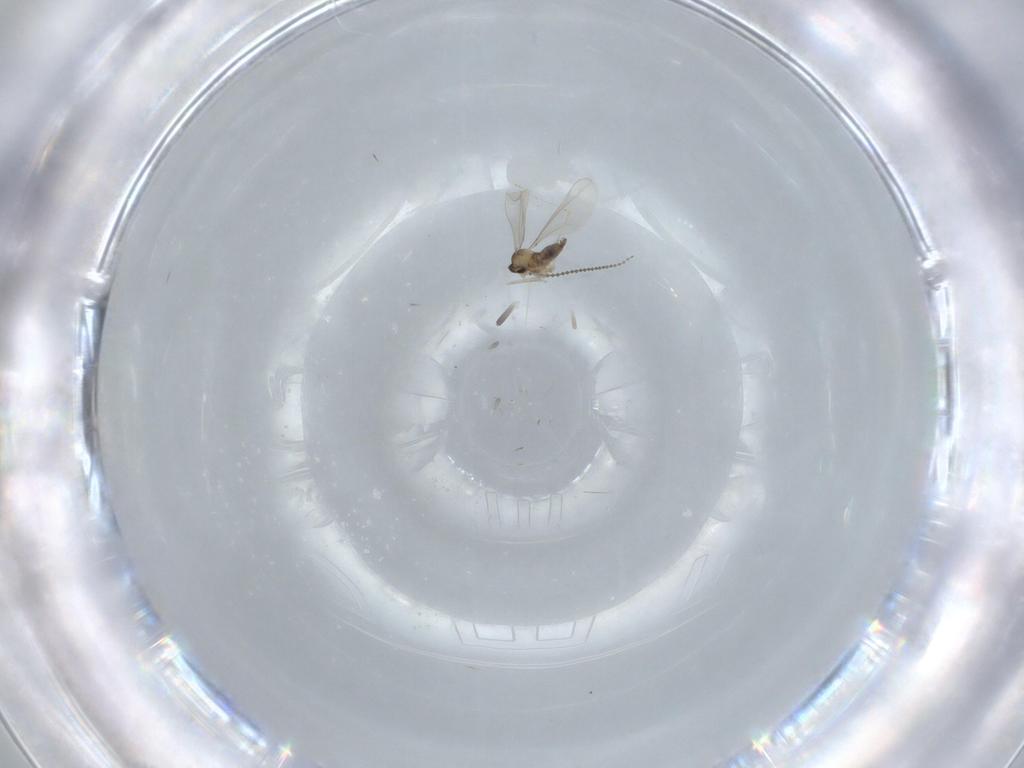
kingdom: Animalia
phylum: Arthropoda
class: Insecta
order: Diptera
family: Cecidomyiidae
